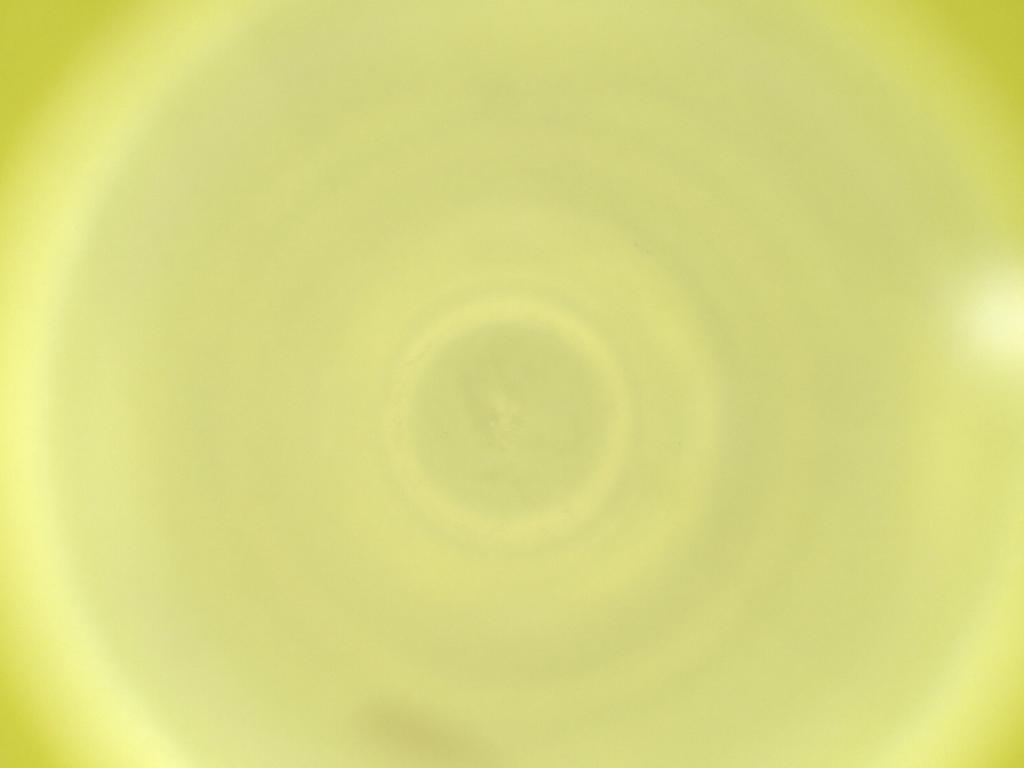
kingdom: Animalia
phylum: Arthropoda
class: Insecta
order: Diptera
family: Cecidomyiidae
